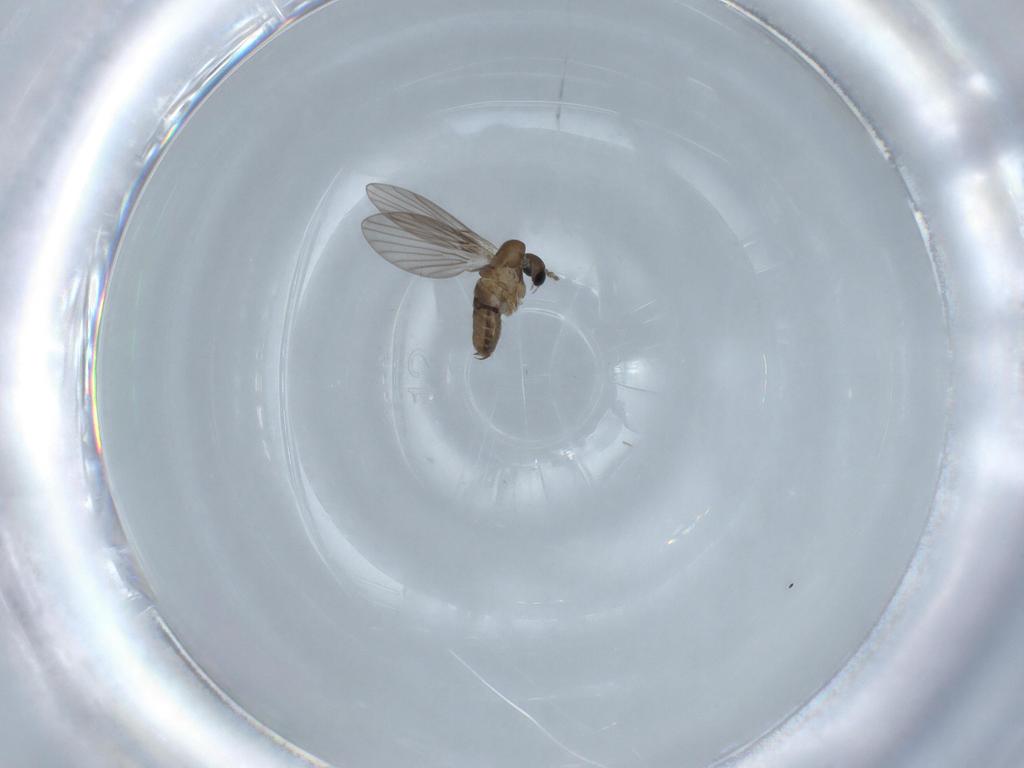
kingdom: Animalia
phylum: Arthropoda
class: Insecta
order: Diptera
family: Sciaridae
